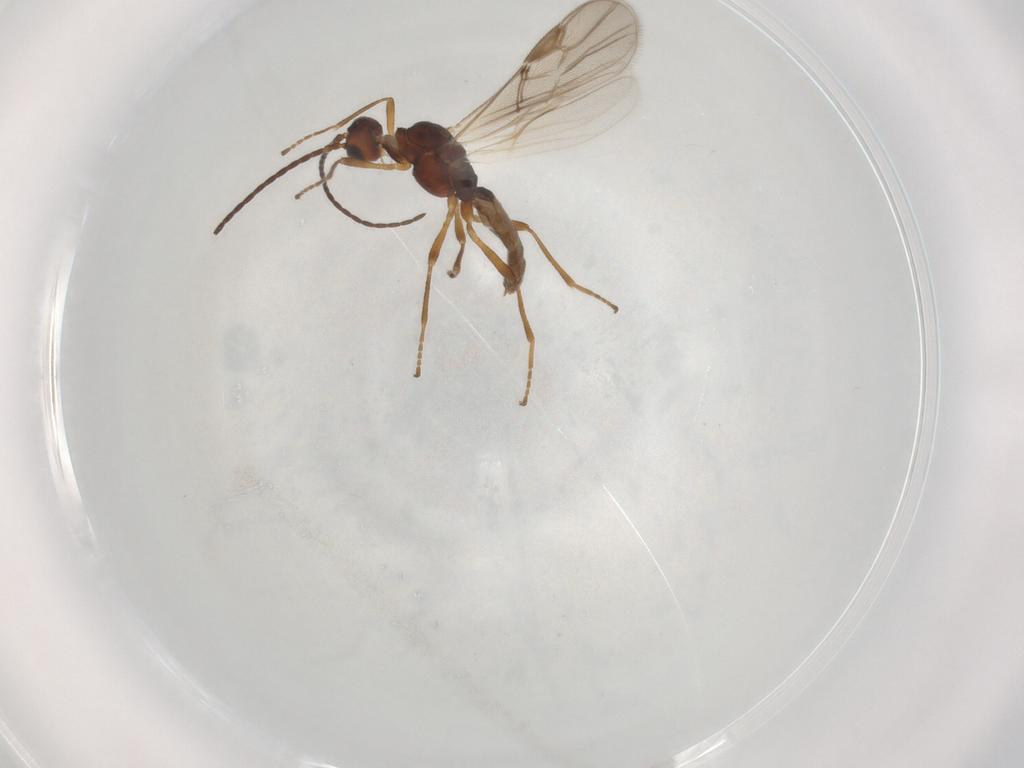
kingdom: Animalia
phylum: Arthropoda
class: Insecta
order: Hymenoptera
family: Braconidae
